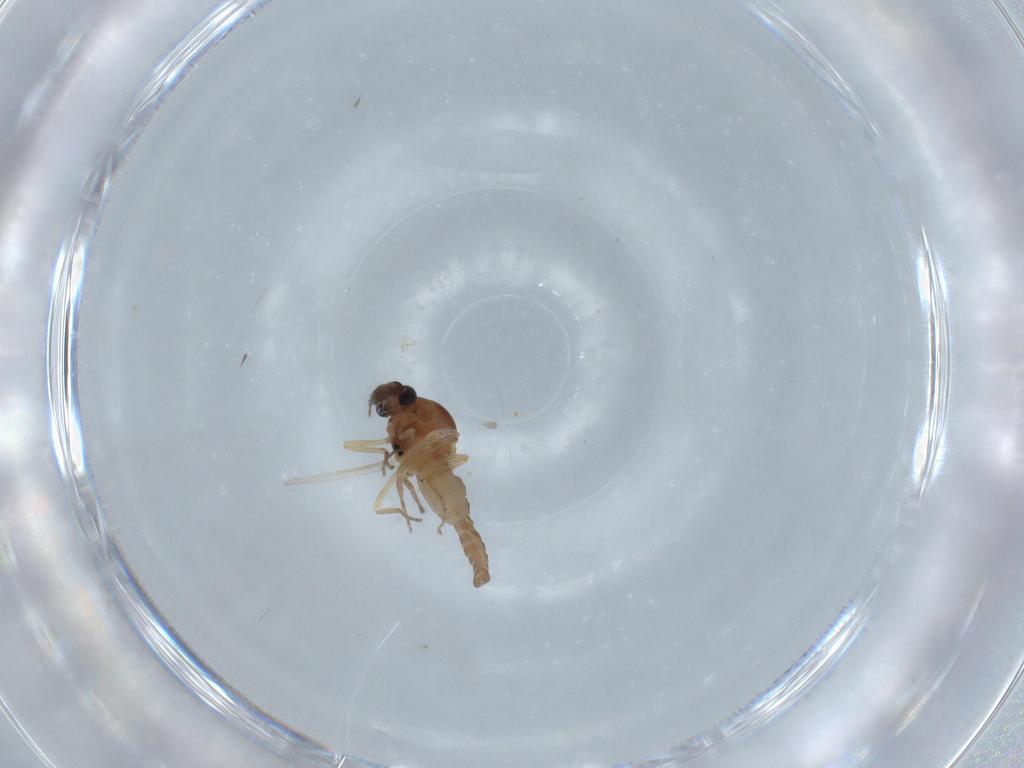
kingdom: Animalia
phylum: Arthropoda
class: Insecta
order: Diptera
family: Ceratopogonidae
